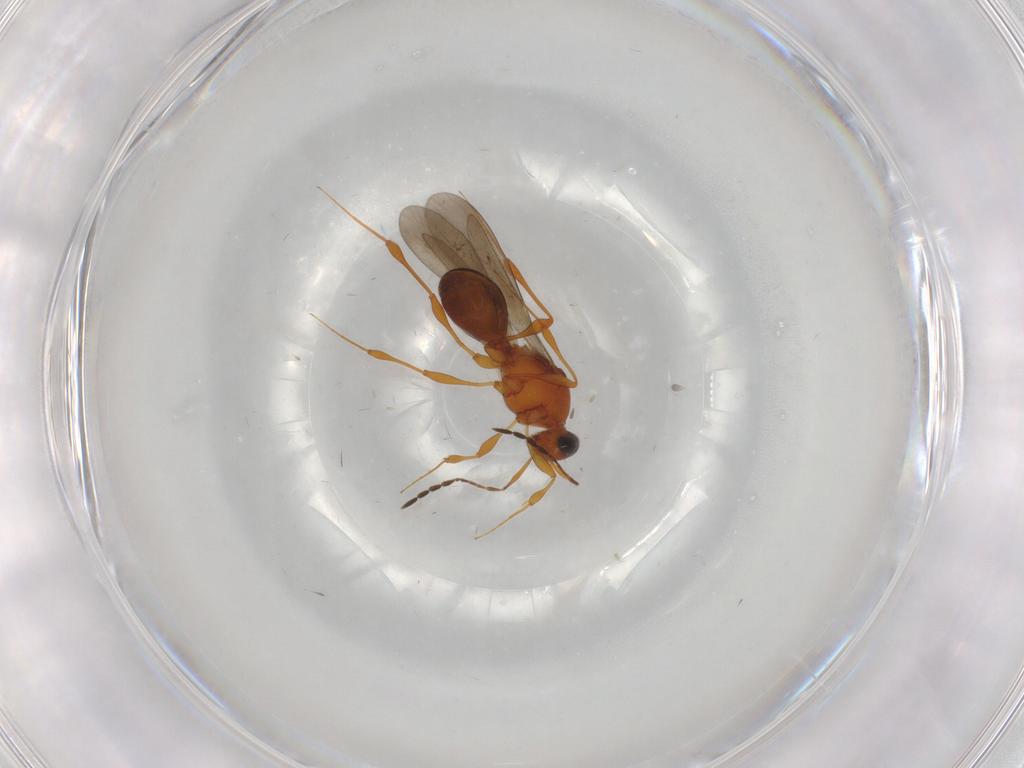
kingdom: Animalia
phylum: Arthropoda
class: Insecta
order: Hymenoptera
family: Platygastridae
